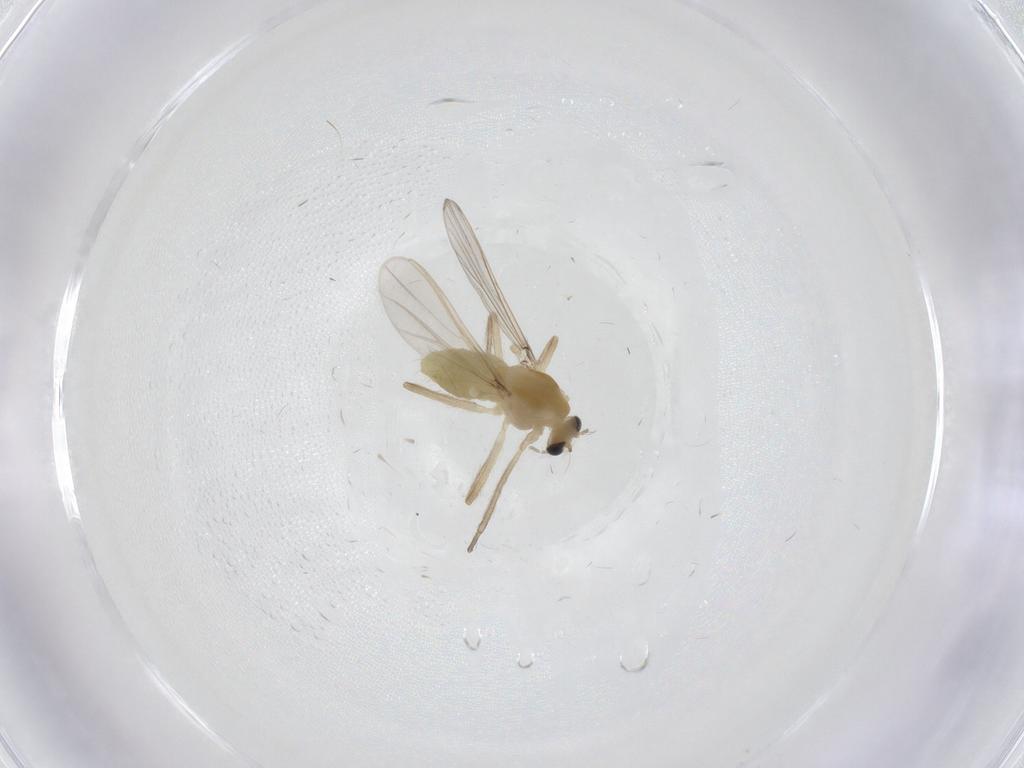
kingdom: Animalia
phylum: Arthropoda
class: Insecta
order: Diptera
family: Chironomidae
